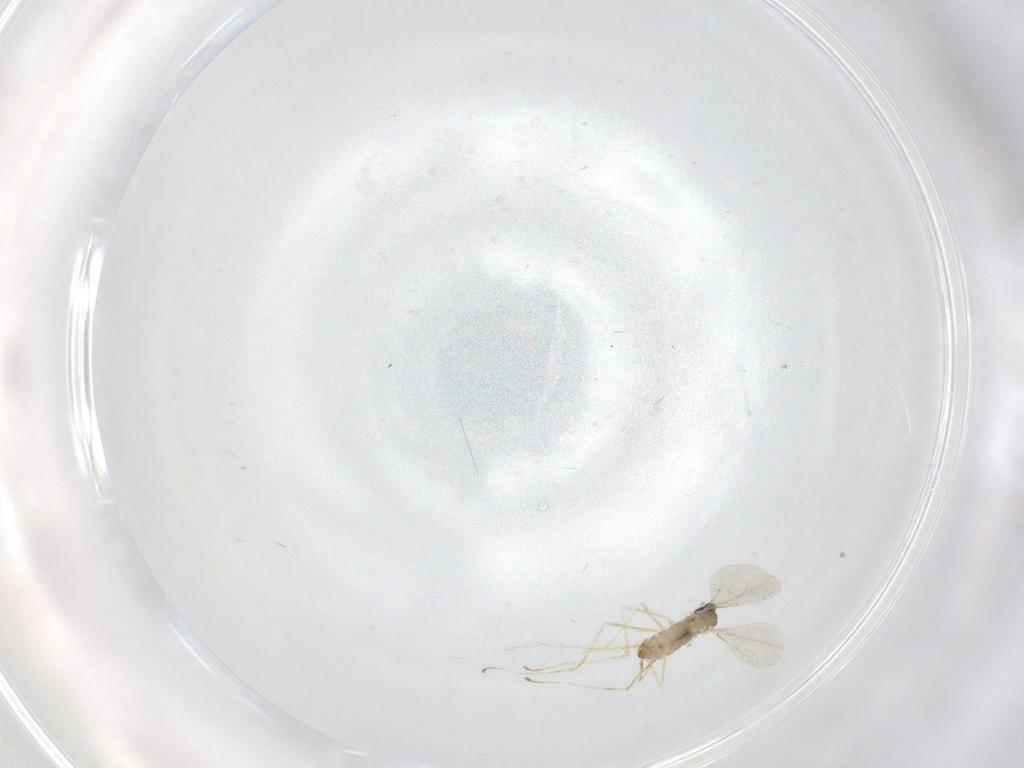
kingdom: Animalia
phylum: Arthropoda
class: Insecta
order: Diptera
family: Cecidomyiidae
